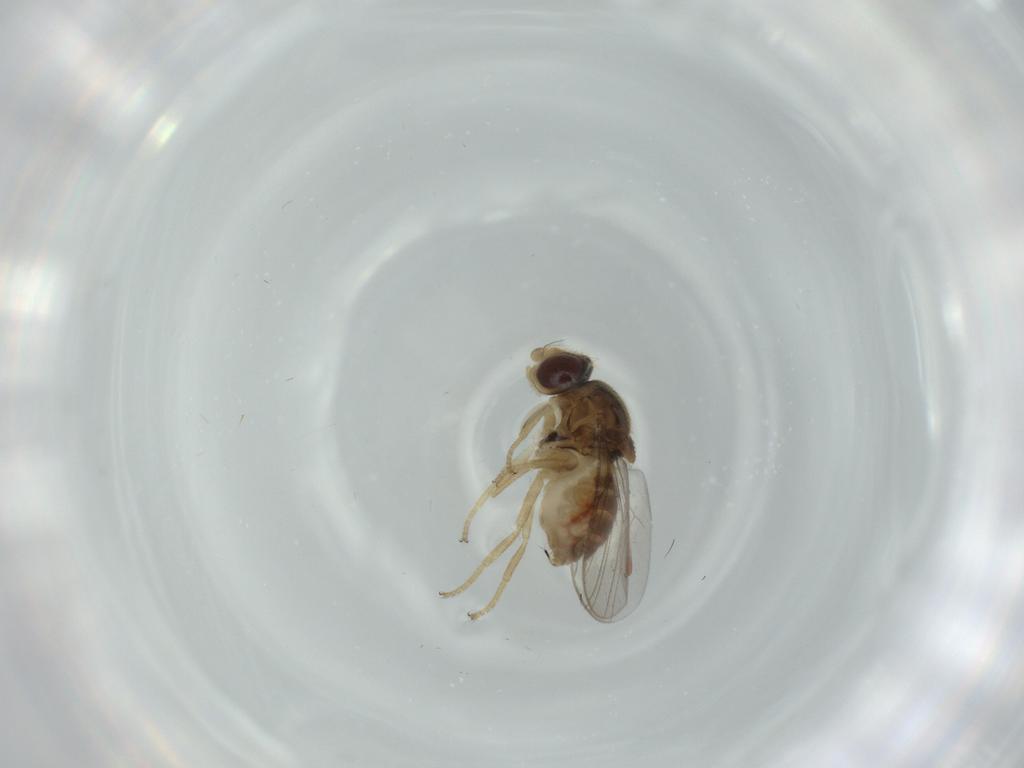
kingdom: Animalia
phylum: Arthropoda
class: Insecta
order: Diptera
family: Chloropidae
